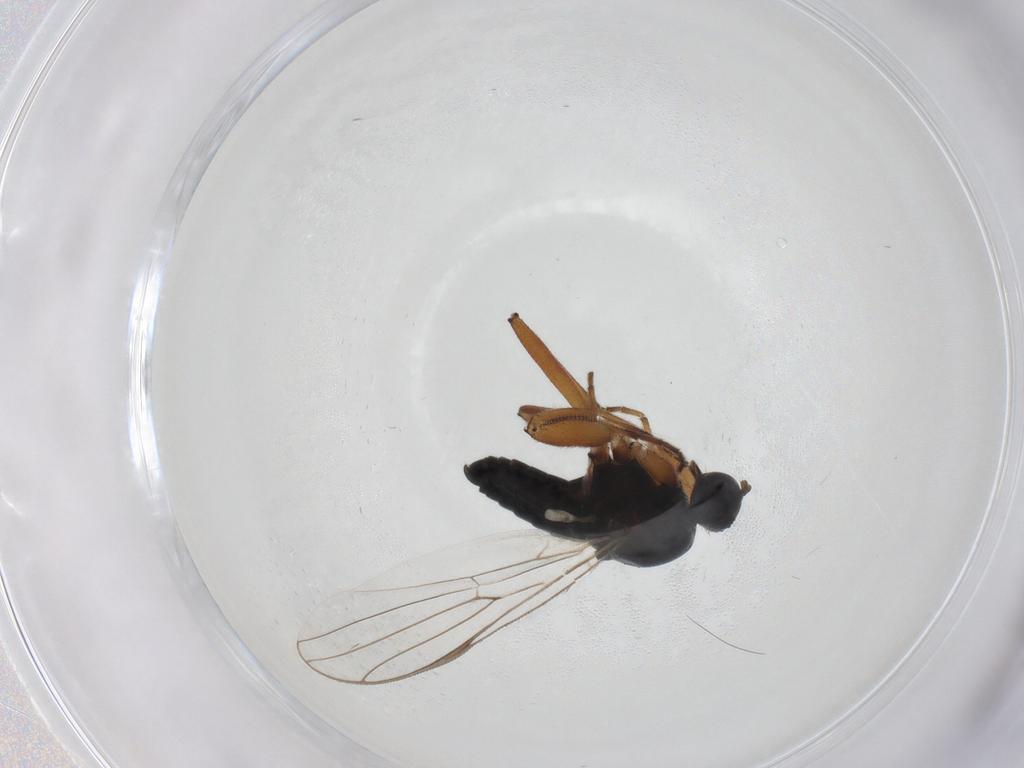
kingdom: Animalia
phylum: Arthropoda
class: Insecta
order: Diptera
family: Hybotidae
